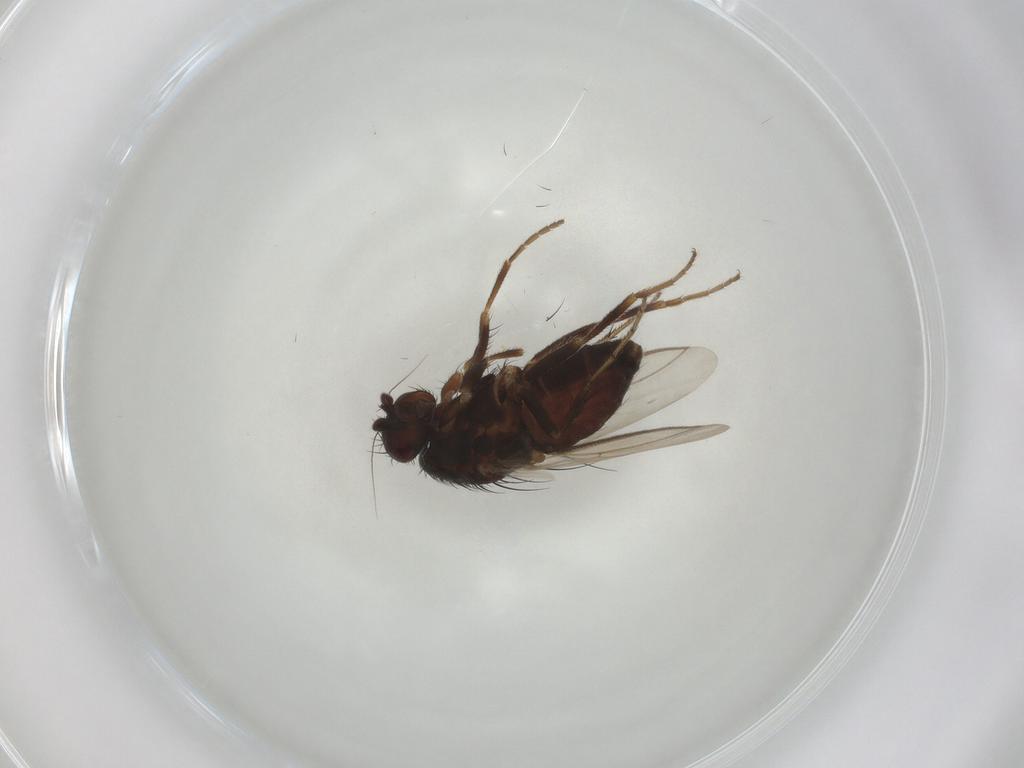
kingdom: Animalia
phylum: Arthropoda
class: Insecta
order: Diptera
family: Sphaeroceridae
